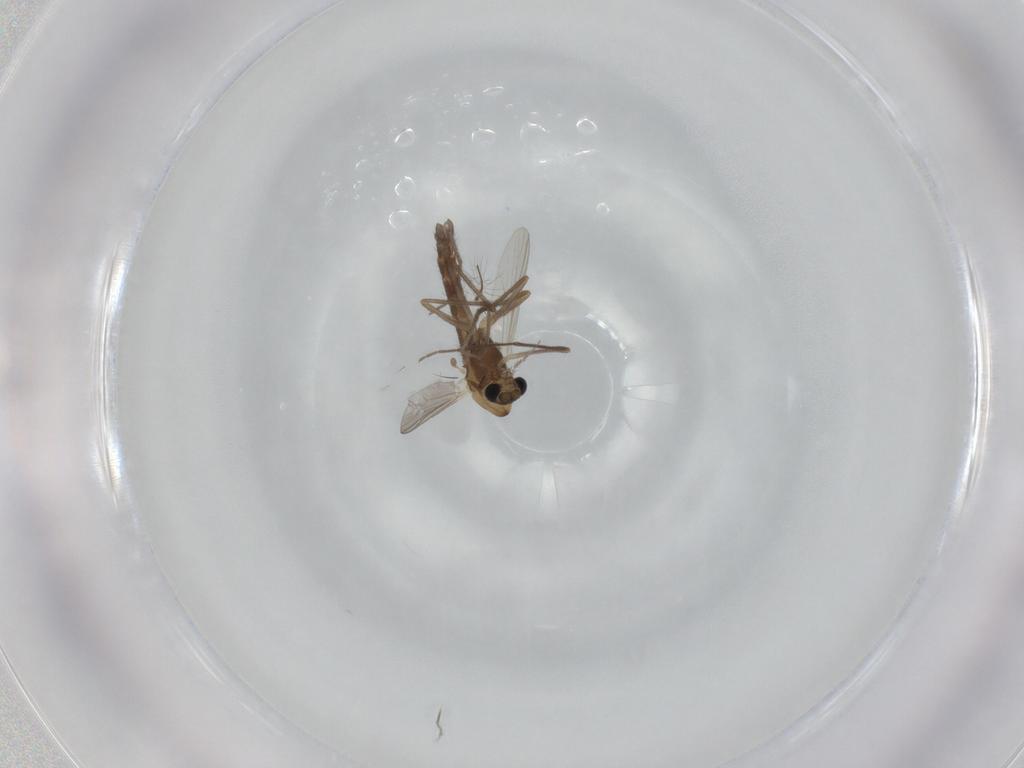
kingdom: Animalia
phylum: Arthropoda
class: Insecta
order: Diptera
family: Chironomidae
